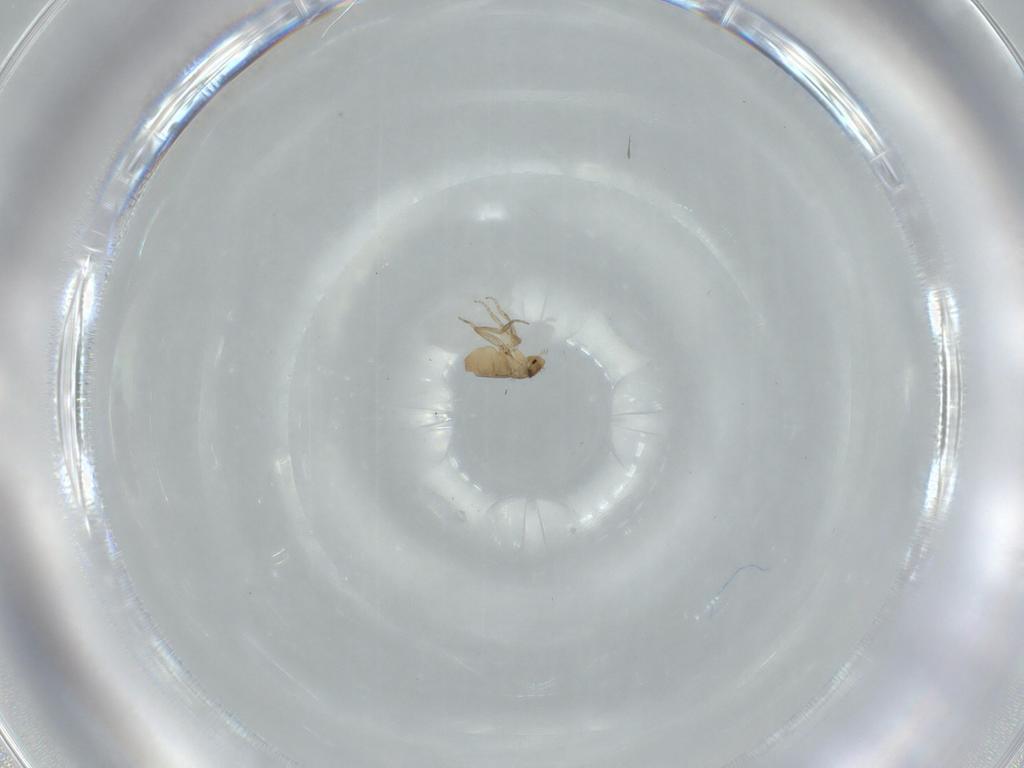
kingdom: Animalia
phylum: Arthropoda
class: Insecta
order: Diptera
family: Phoridae
